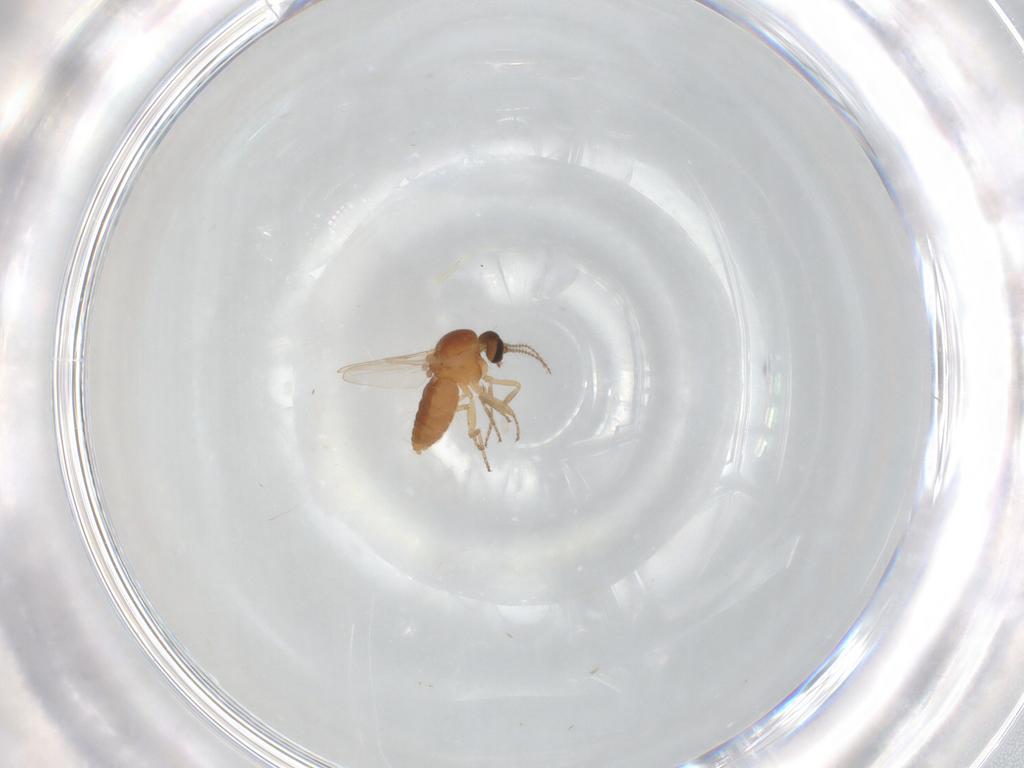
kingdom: Animalia
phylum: Arthropoda
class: Insecta
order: Diptera
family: Ceratopogonidae
